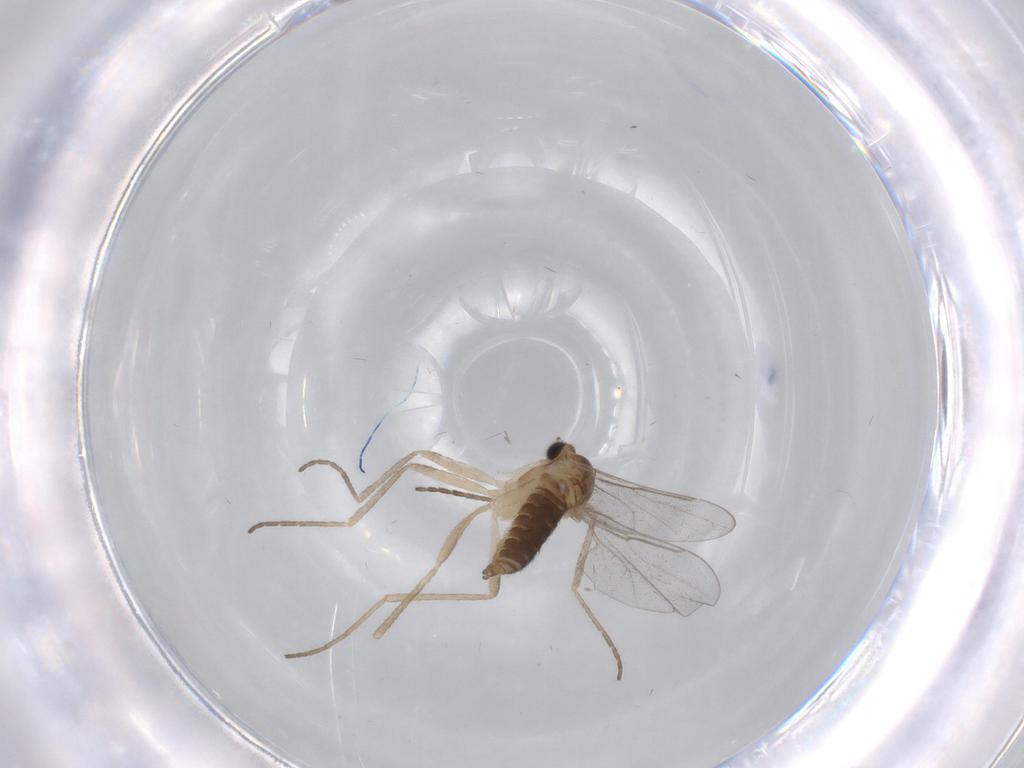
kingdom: Animalia
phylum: Arthropoda
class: Insecta
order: Diptera
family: Cecidomyiidae
